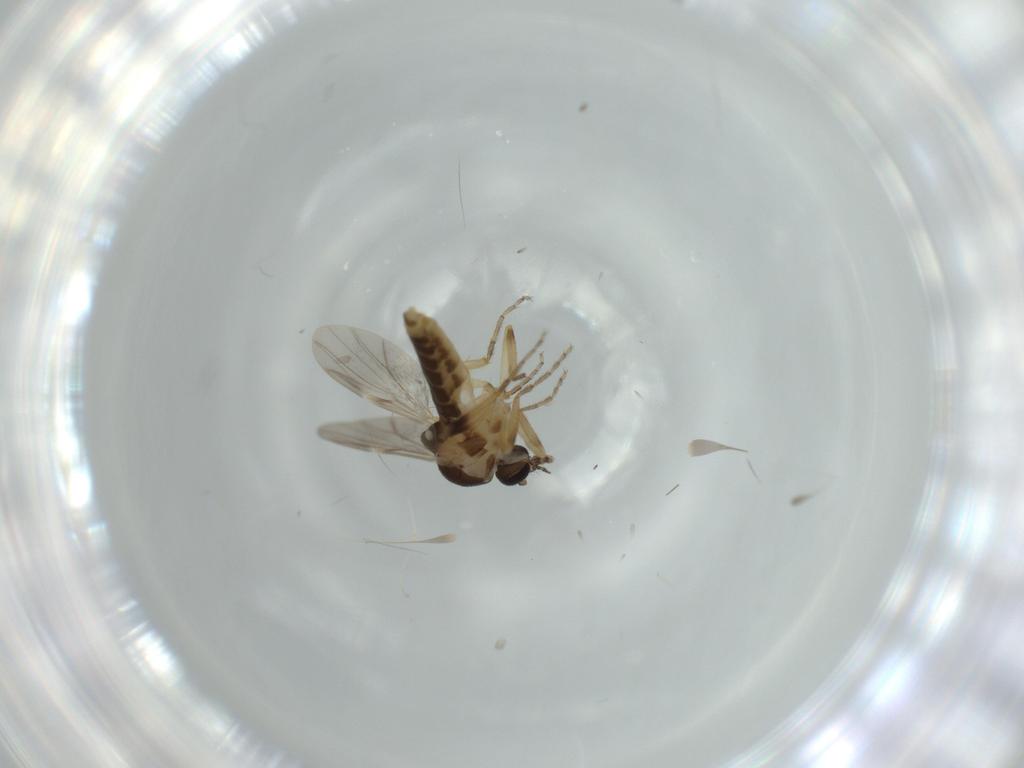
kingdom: Animalia
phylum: Arthropoda
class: Insecta
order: Diptera
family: Ceratopogonidae
